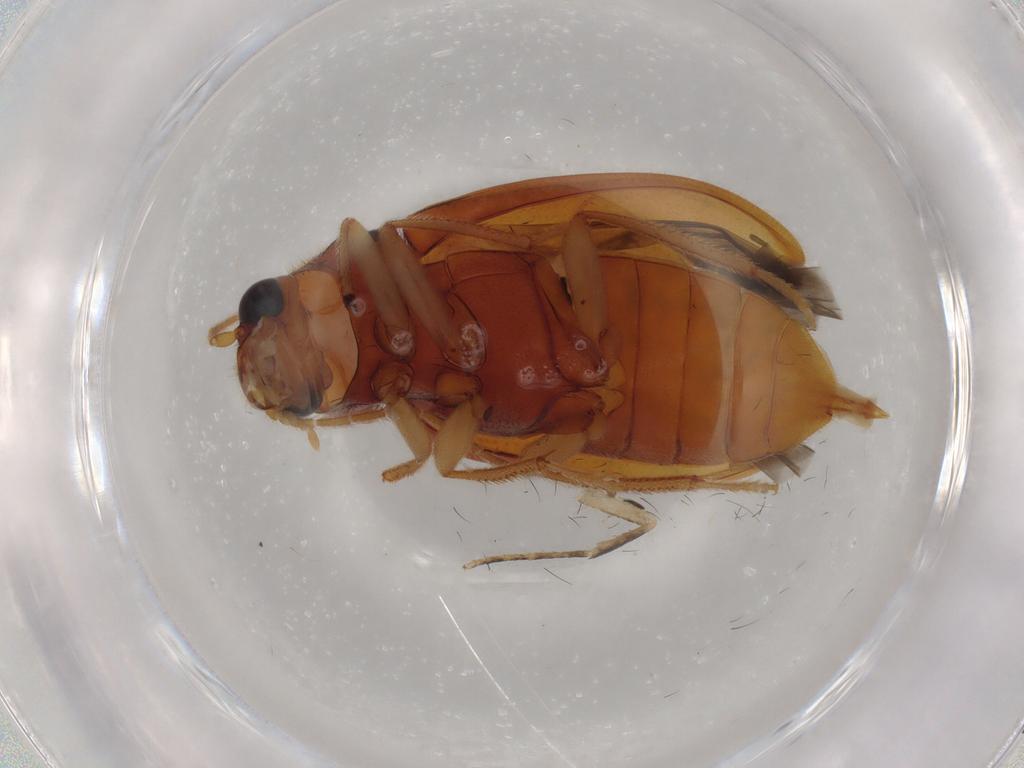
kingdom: Animalia
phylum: Arthropoda
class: Insecta
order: Coleoptera
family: Ptilodactylidae
